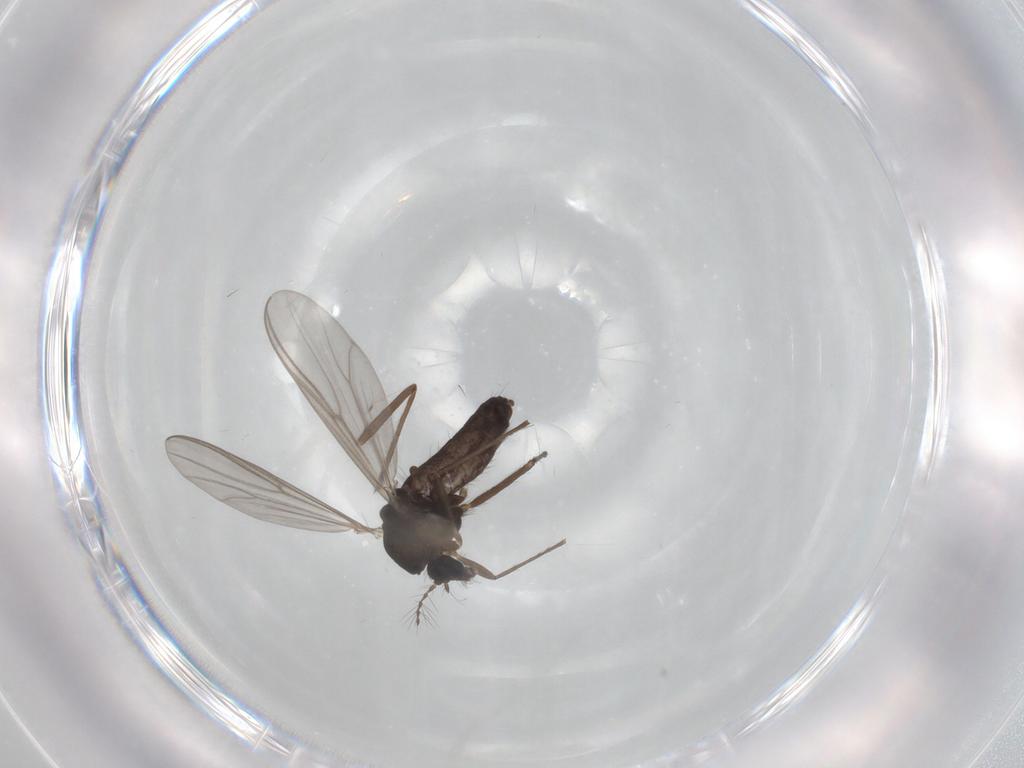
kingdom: Animalia
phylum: Arthropoda
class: Insecta
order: Diptera
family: Chironomidae
